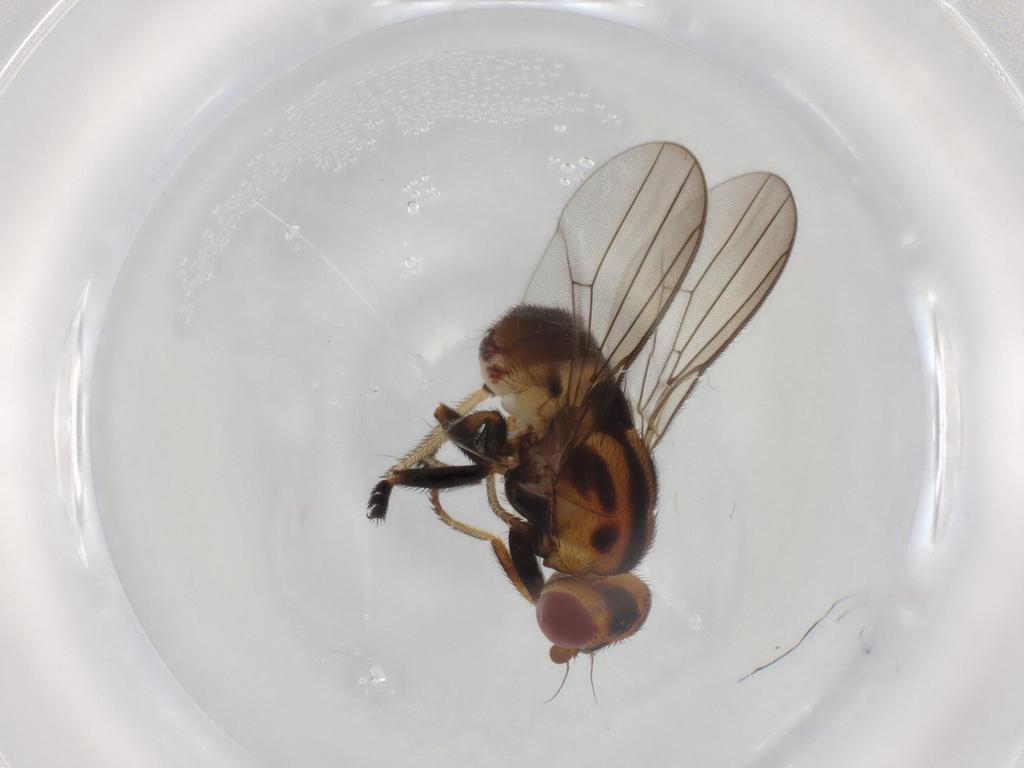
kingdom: Animalia
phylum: Arthropoda
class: Insecta
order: Diptera
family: Chloropidae
